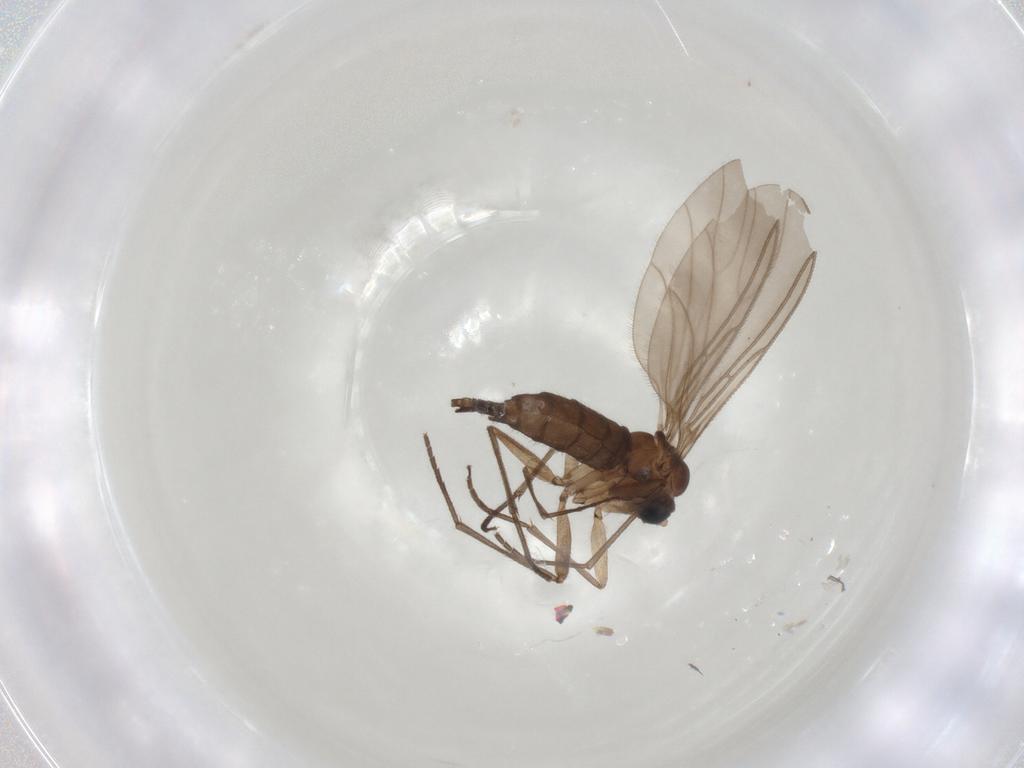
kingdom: Animalia
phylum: Arthropoda
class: Insecta
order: Diptera
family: Sciaridae
